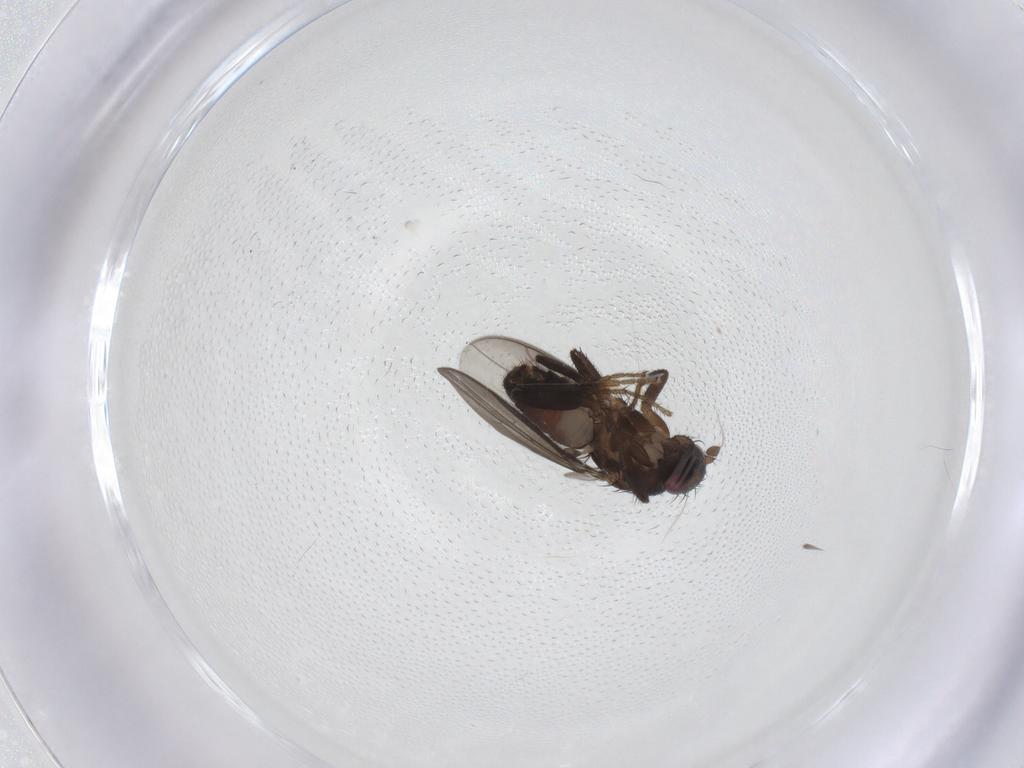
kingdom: Animalia
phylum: Arthropoda
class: Insecta
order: Diptera
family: Sphaeroceridae
